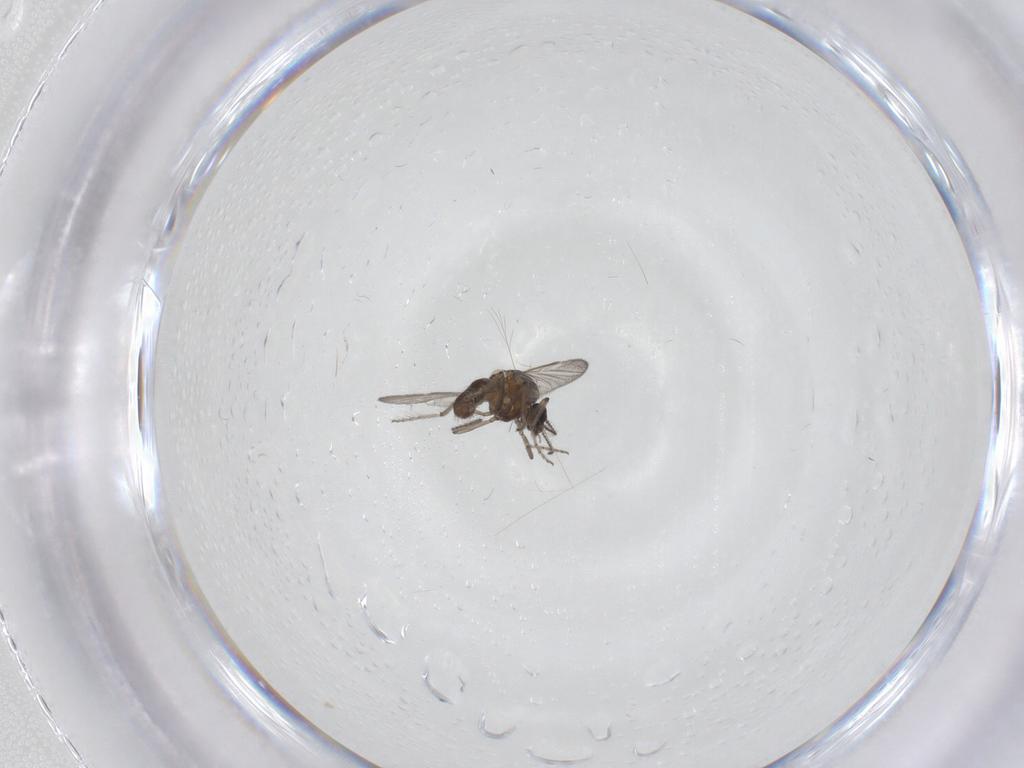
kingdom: Animalia
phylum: Arthropoda
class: Insecta
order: Diptera
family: Ceratopogonidae
